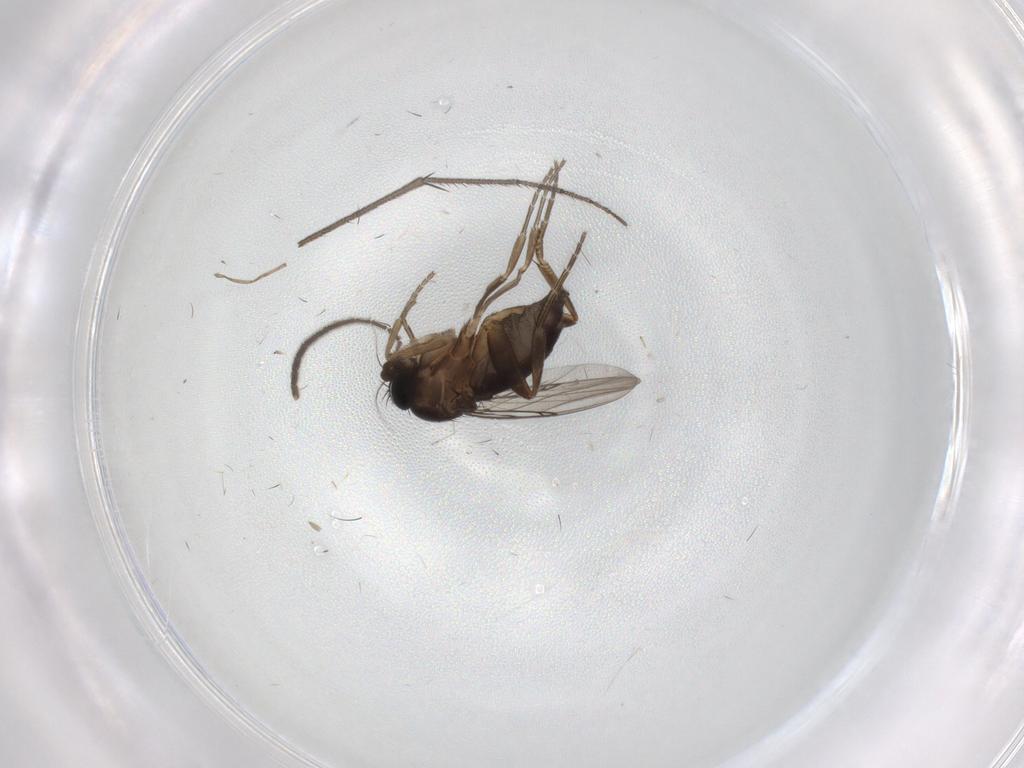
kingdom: Animalia
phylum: Arthropoda
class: Insecta
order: Diptera
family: Phoridae
